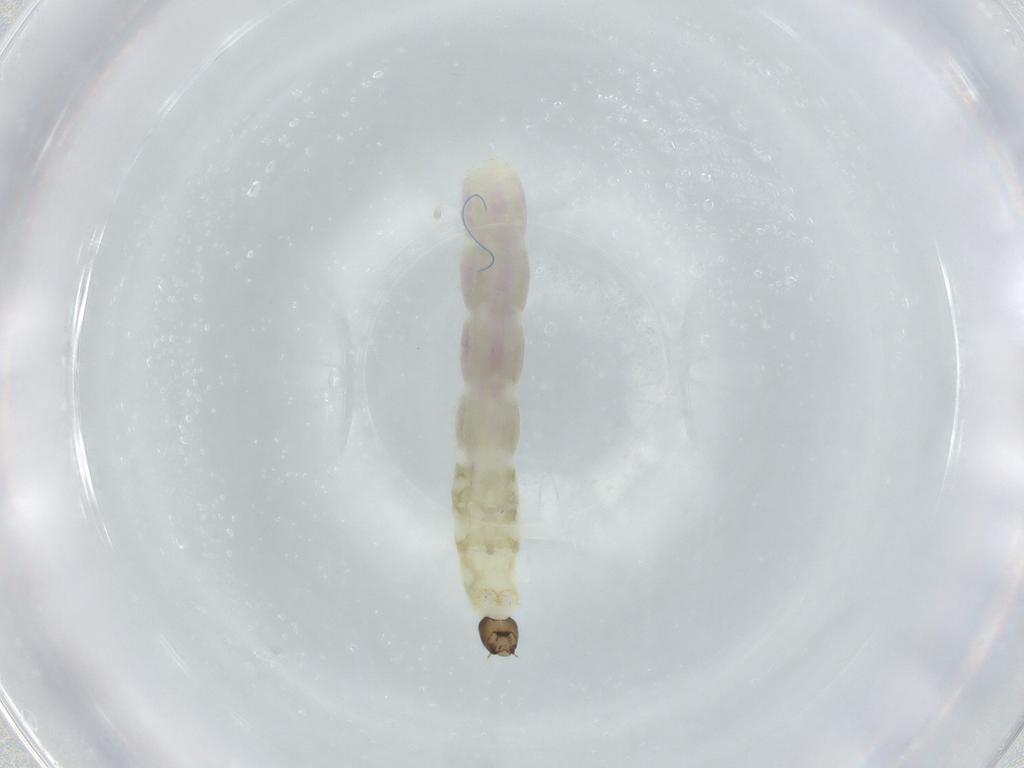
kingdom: Animalia
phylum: Arthropoda
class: Insecta
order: Diptera
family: Chironomidae
